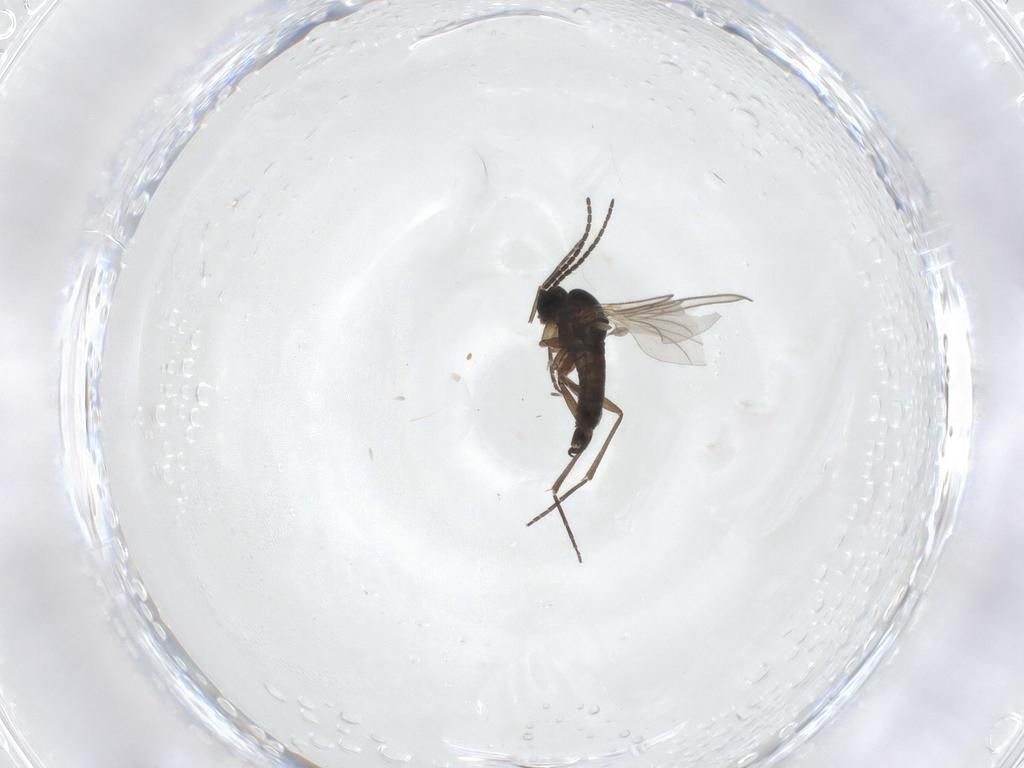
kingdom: Animalia
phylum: Arthropoda
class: Insecta
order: Diptera
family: Sciaridae
